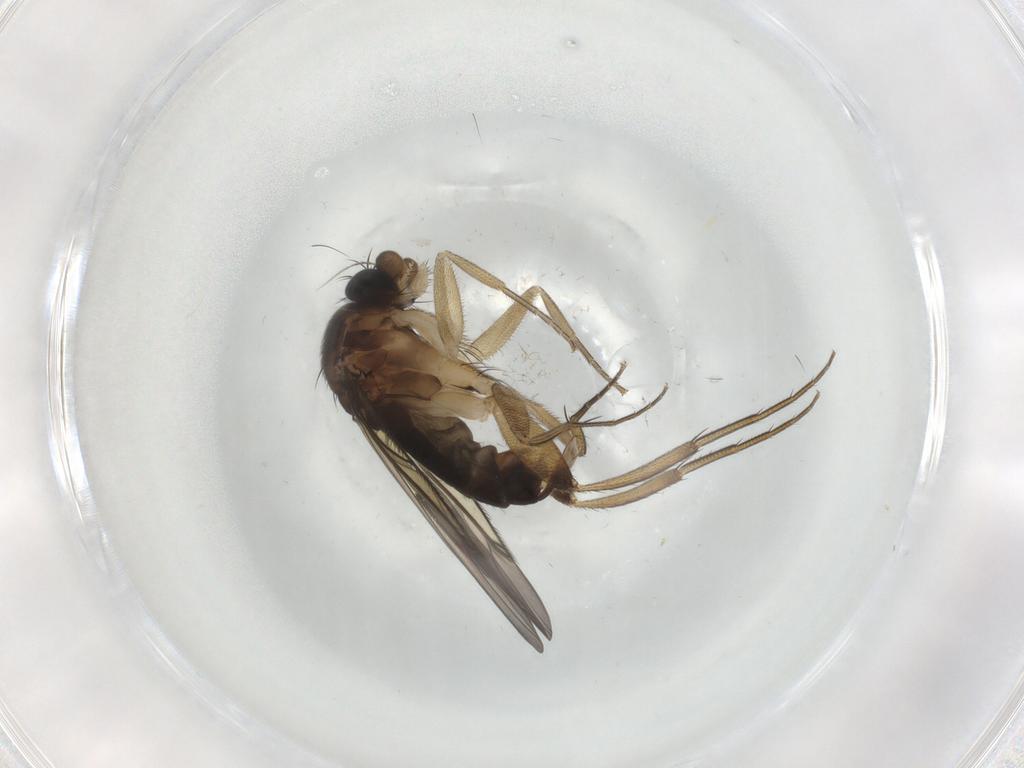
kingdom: Animalia
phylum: Arthropoda
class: Insecta
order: Diptera
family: Phoridae
